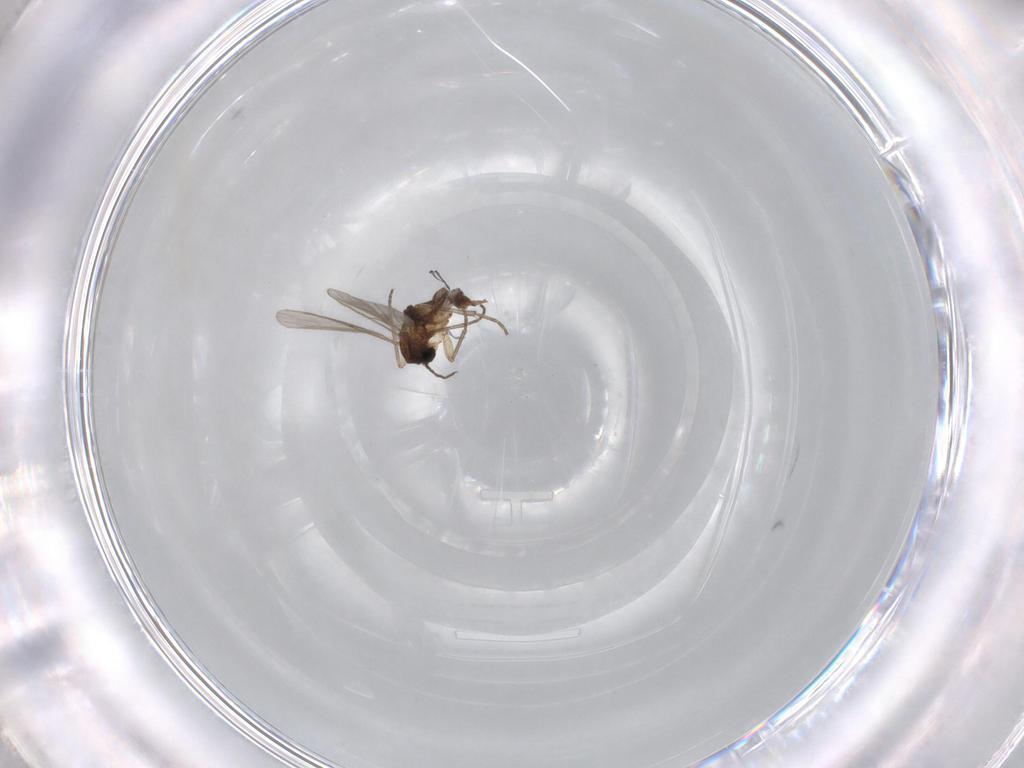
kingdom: Animalia
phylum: Arthropoda
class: Insecta
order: Diptera
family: Sciaridae
